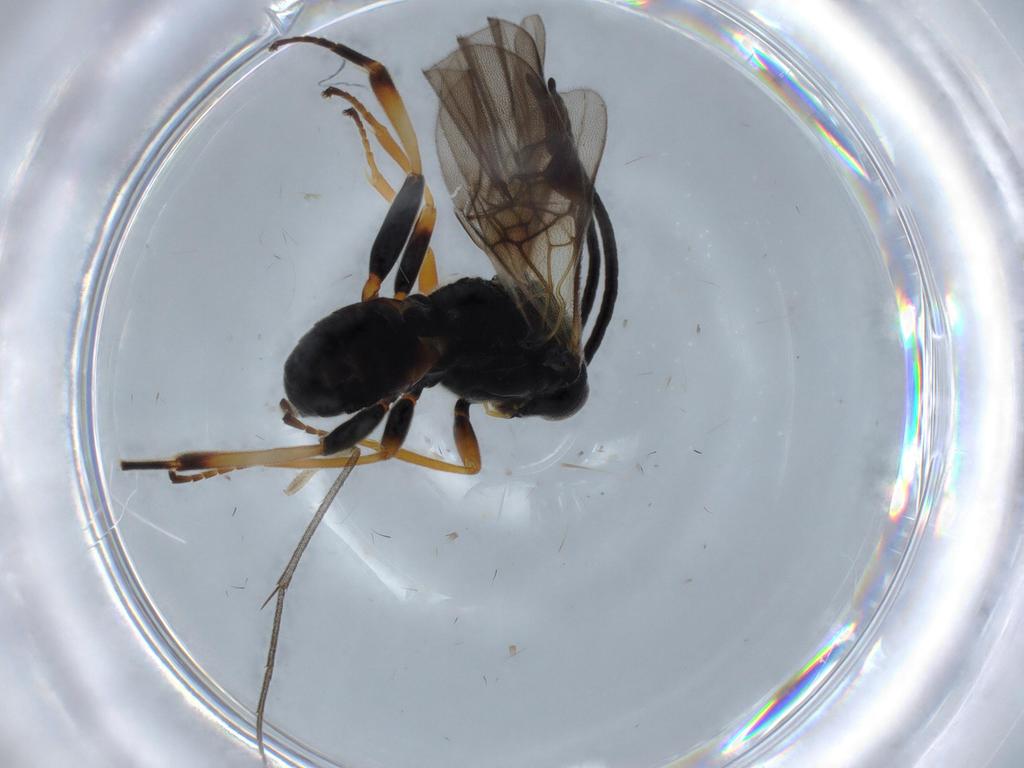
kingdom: Animalia
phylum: Arthropoda
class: Insecta
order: Hymenoptera
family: Braconidae
